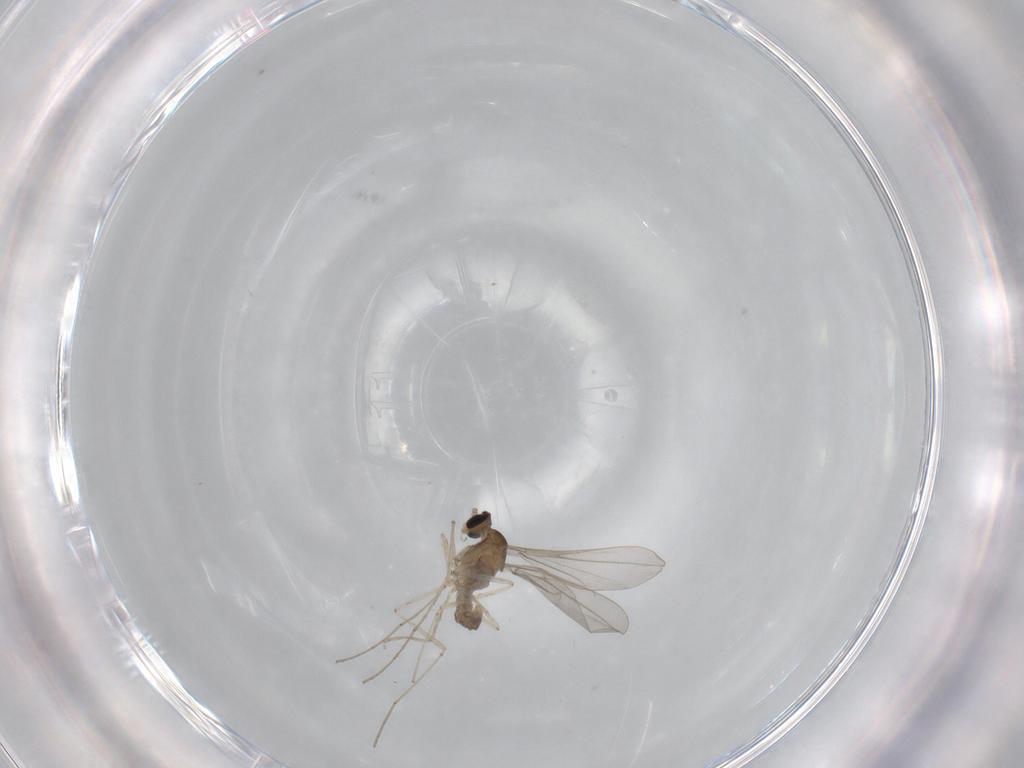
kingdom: Animalia
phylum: Arthropoda
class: Insecta
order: Diptera
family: Cecidomyiidae
